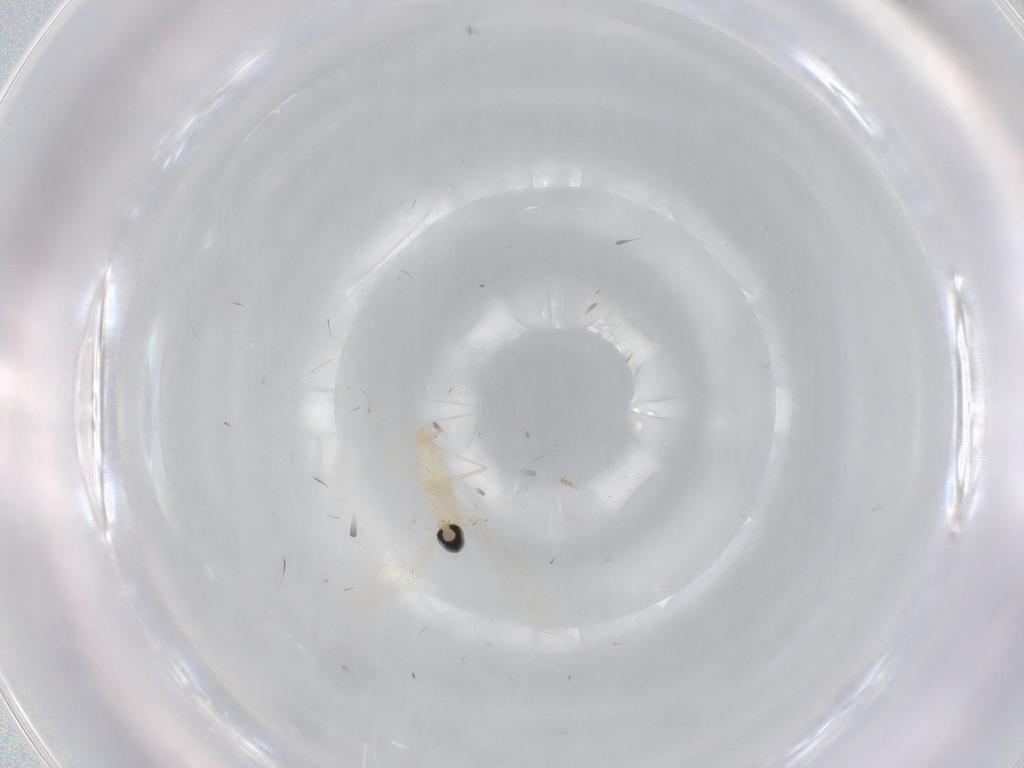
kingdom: Animalia
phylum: Arthropoda
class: Insecta
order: Diptera
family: Cecidomyiidae
